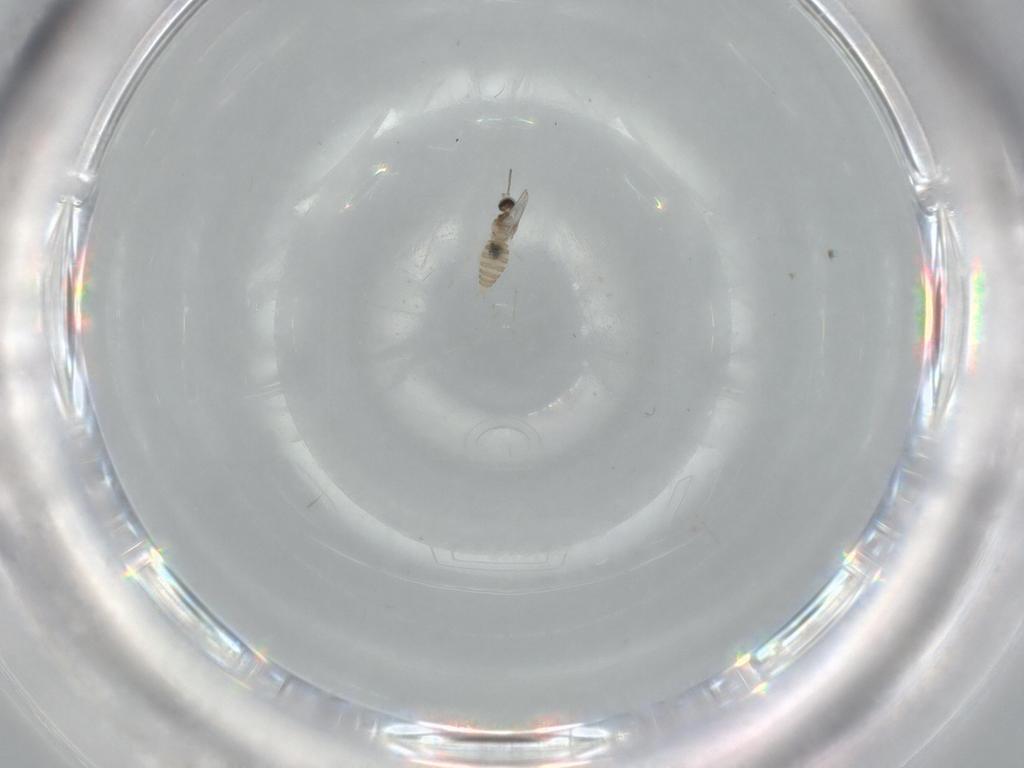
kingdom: Animalia
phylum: Arthropoda
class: Insecta
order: Diptera
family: Cecidomyiidae
